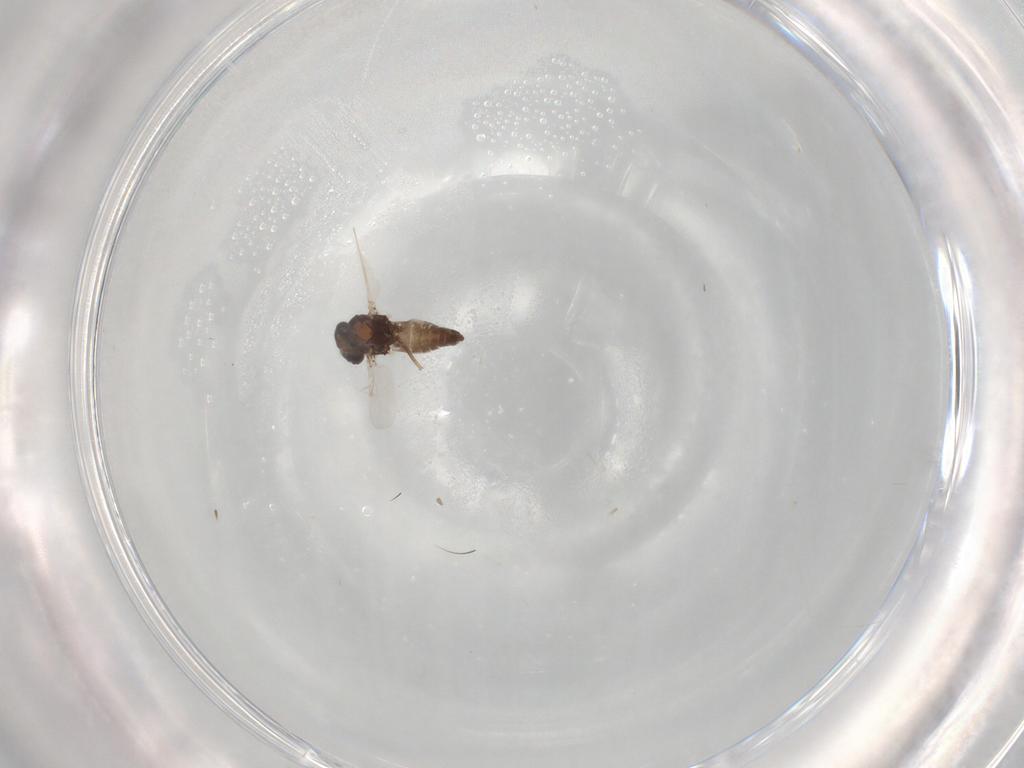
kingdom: Animalia
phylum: Arthropoda
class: Insecta
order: Diptera
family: Ceratopogonidae
